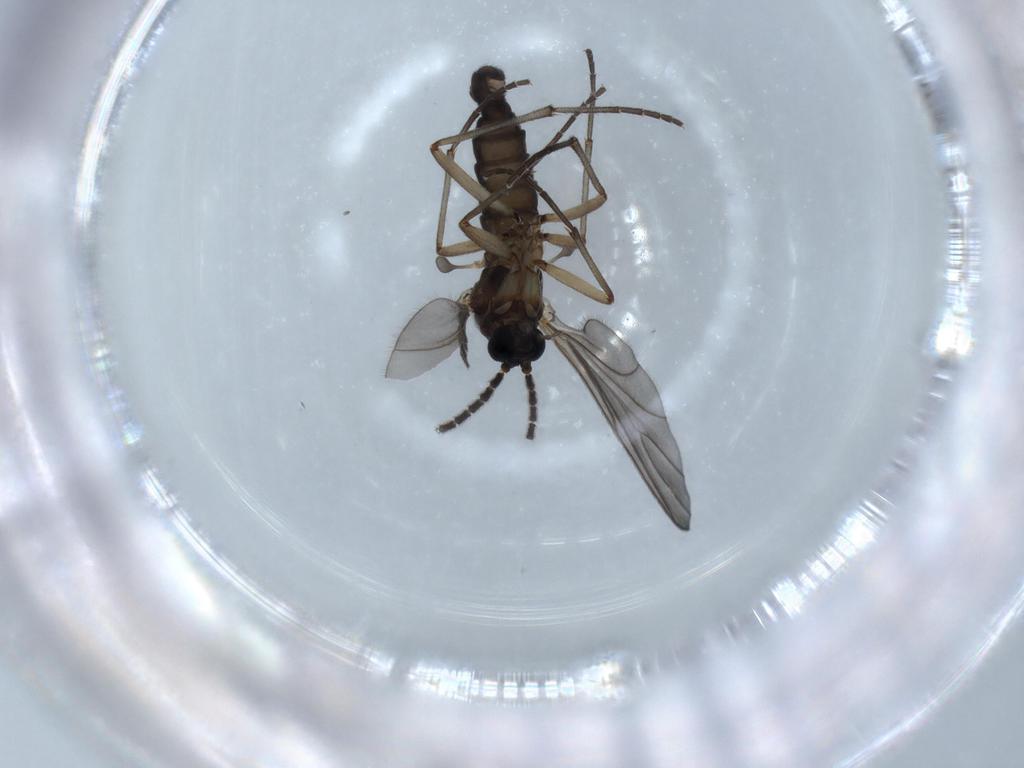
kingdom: Animalia
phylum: Arthropoda
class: Insecta
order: Diptera
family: Sciaridae
